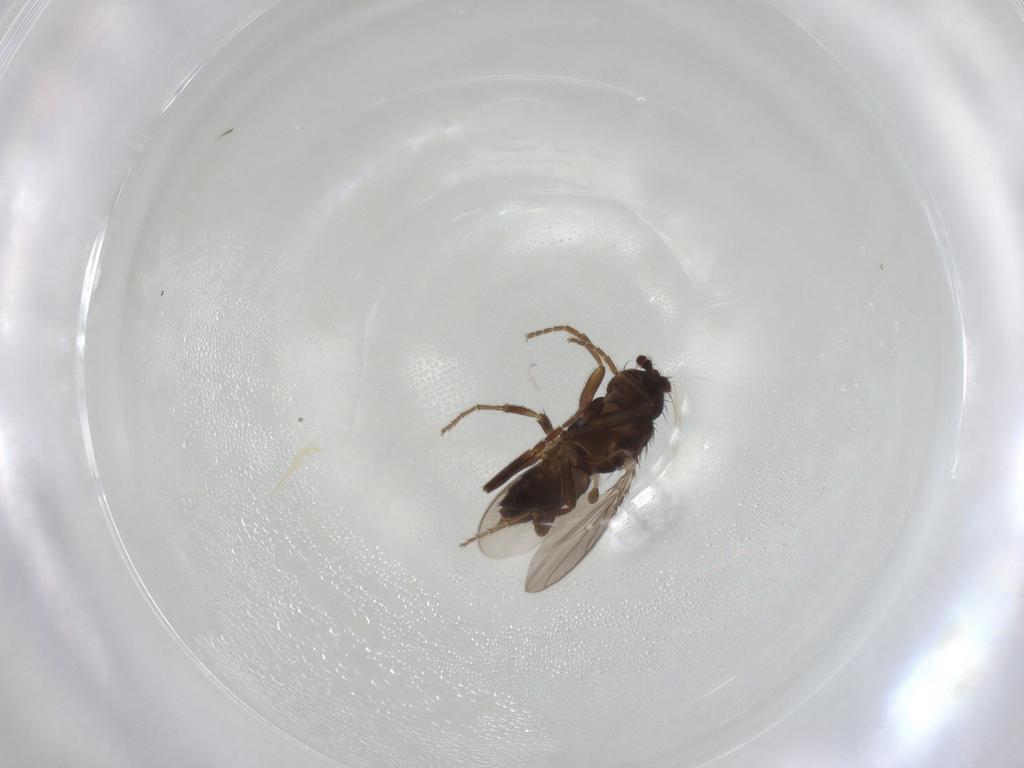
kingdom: Animalia
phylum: Arthropoda
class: Insecta
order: Diptera
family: Sphaeroceridae
